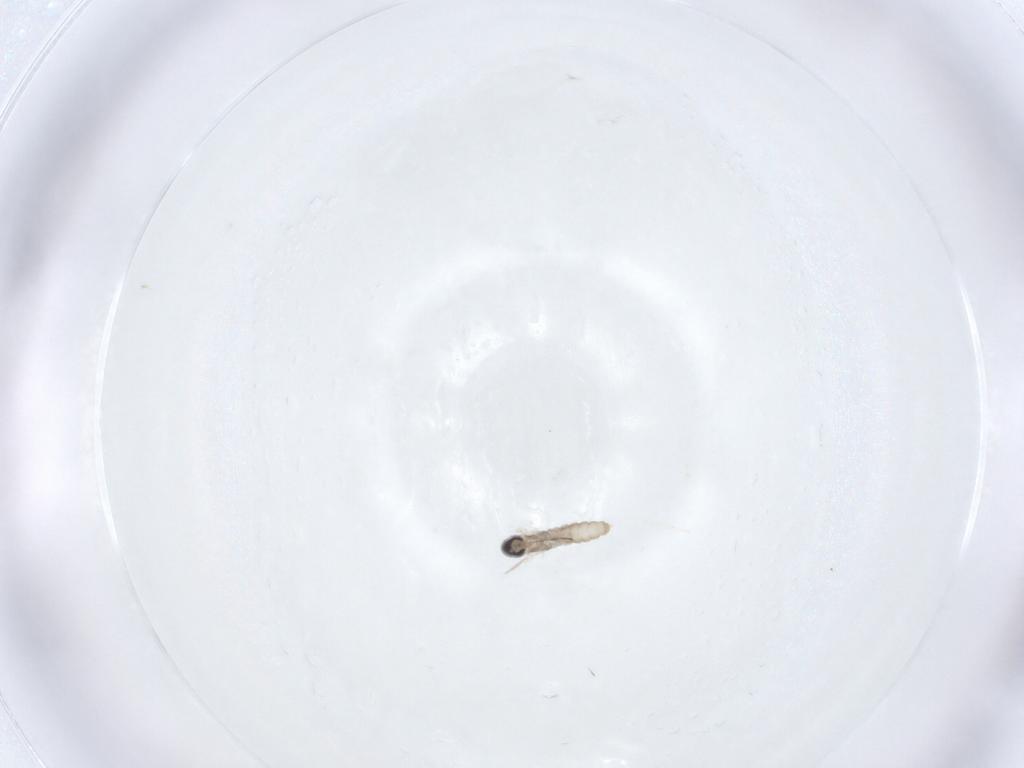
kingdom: Animalia
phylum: Arthropoda
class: Insecta
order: Diptera
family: Cecidomyiidae
